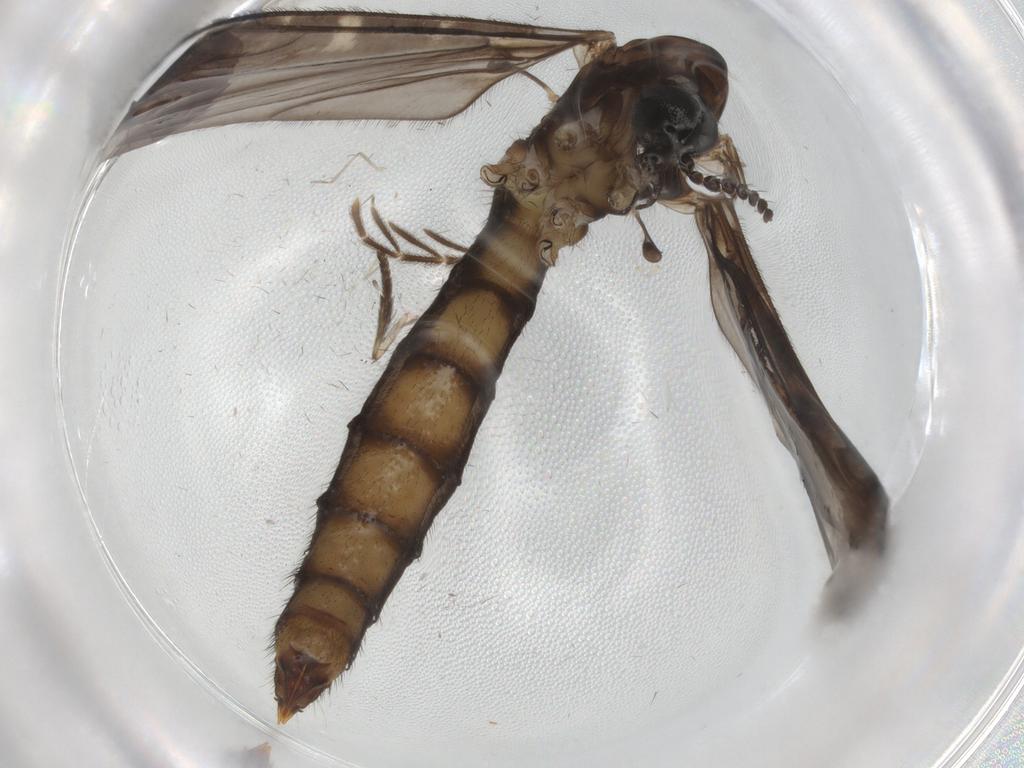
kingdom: Animalia
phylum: Arthropoda
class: Insecta
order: Diptera
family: Limoniidae
